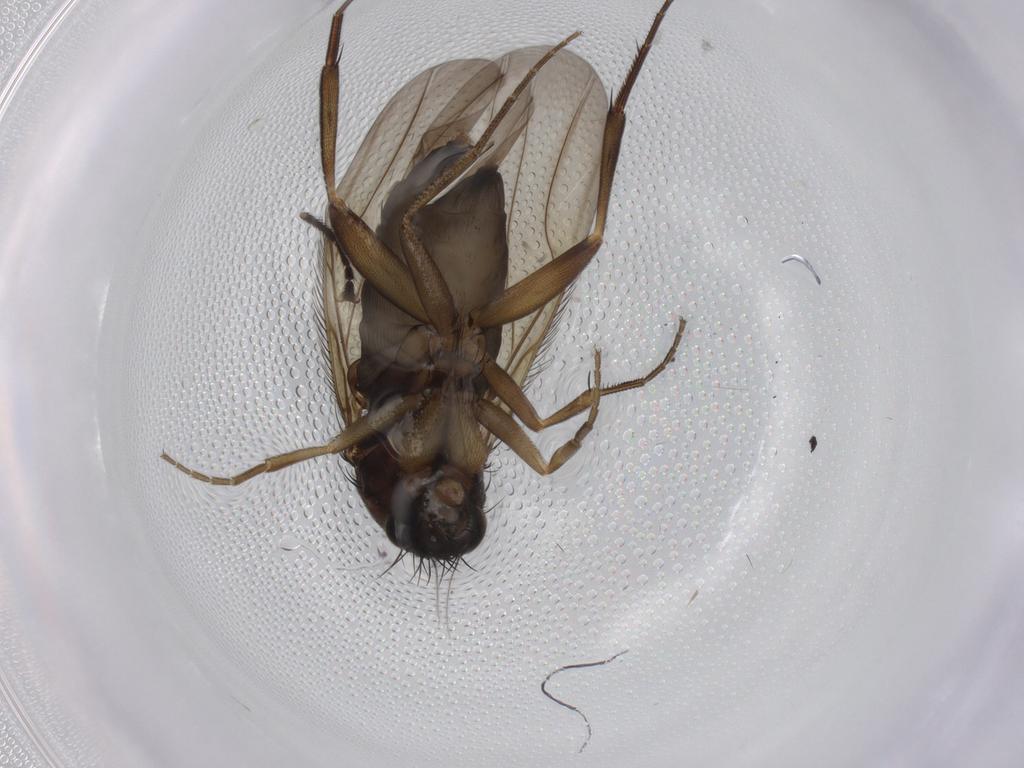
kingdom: Animalia
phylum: Arthropoda
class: Insecta
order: Diptera
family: Phoridae
